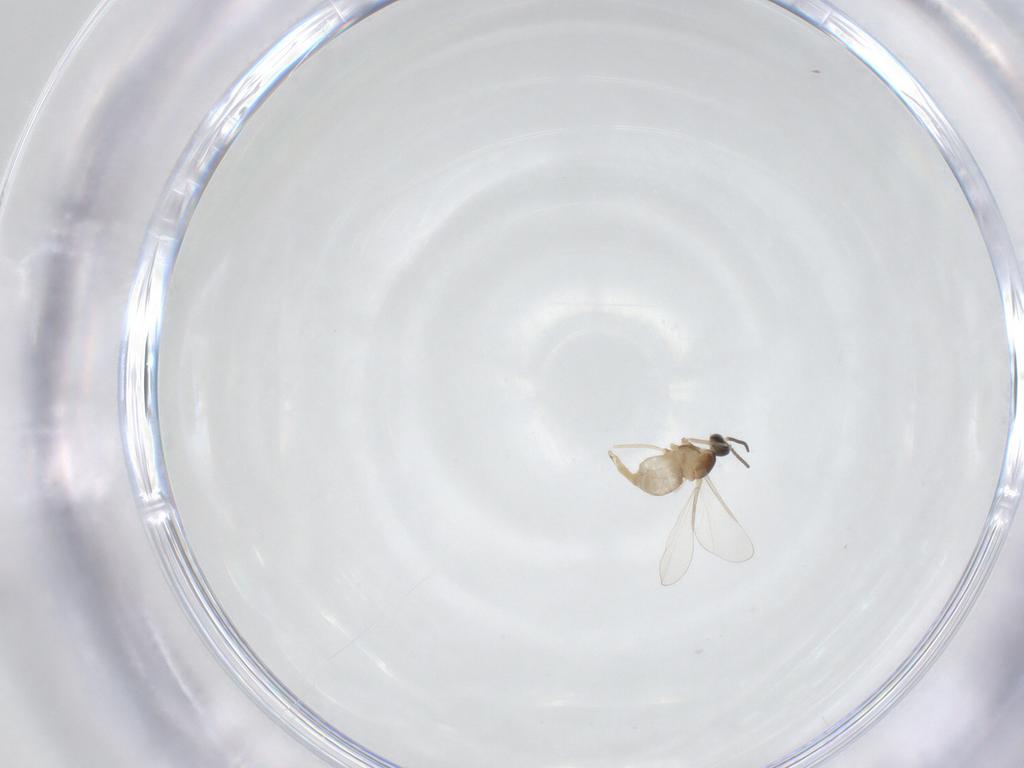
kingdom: Animalia
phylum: Arthropoda
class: Insecta
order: Diptera
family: Cecidomyiidae
